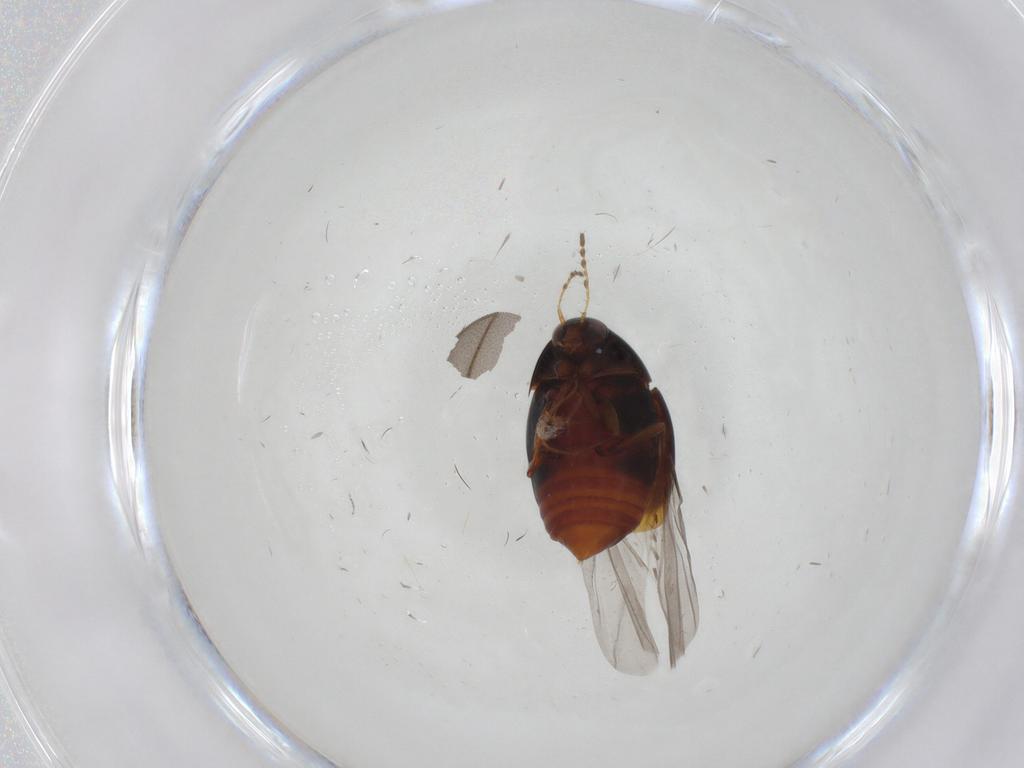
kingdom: Animalia
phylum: Arthropoda
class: Insecta
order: Coleoptera
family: Staphylinidae
